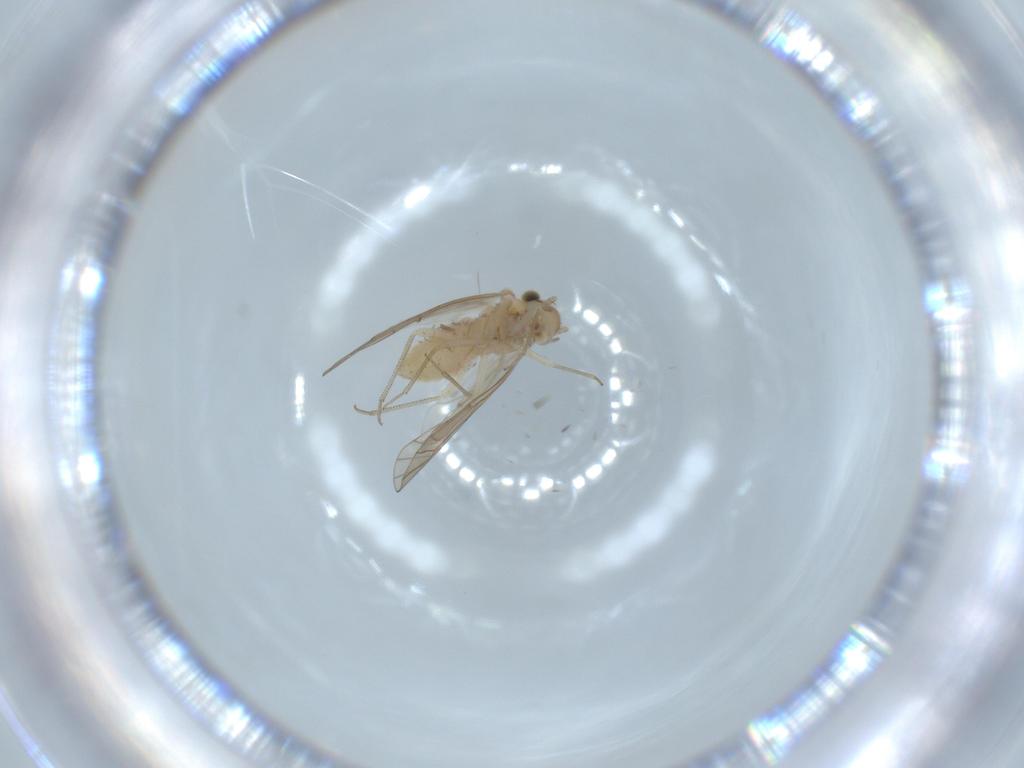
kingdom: Animalia
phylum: Arthropoda
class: Insecta
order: Psocodea
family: Lachesillidae
